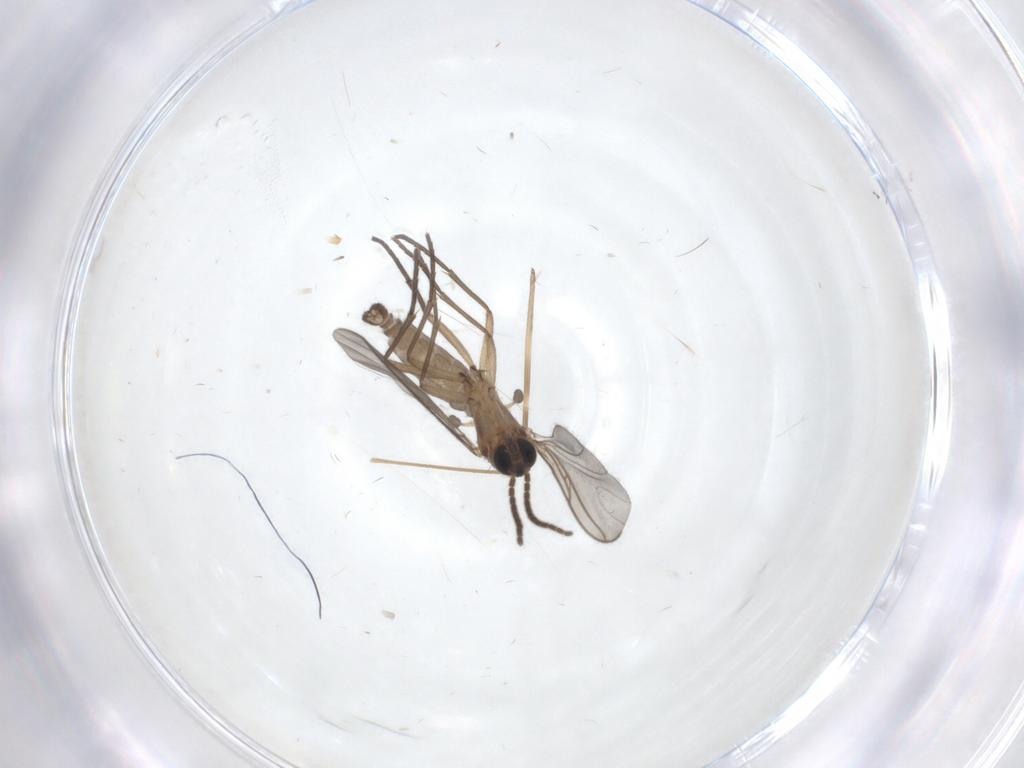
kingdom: Animalia
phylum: Arthropoda
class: Insecta
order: Diptera
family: Sciaridae
